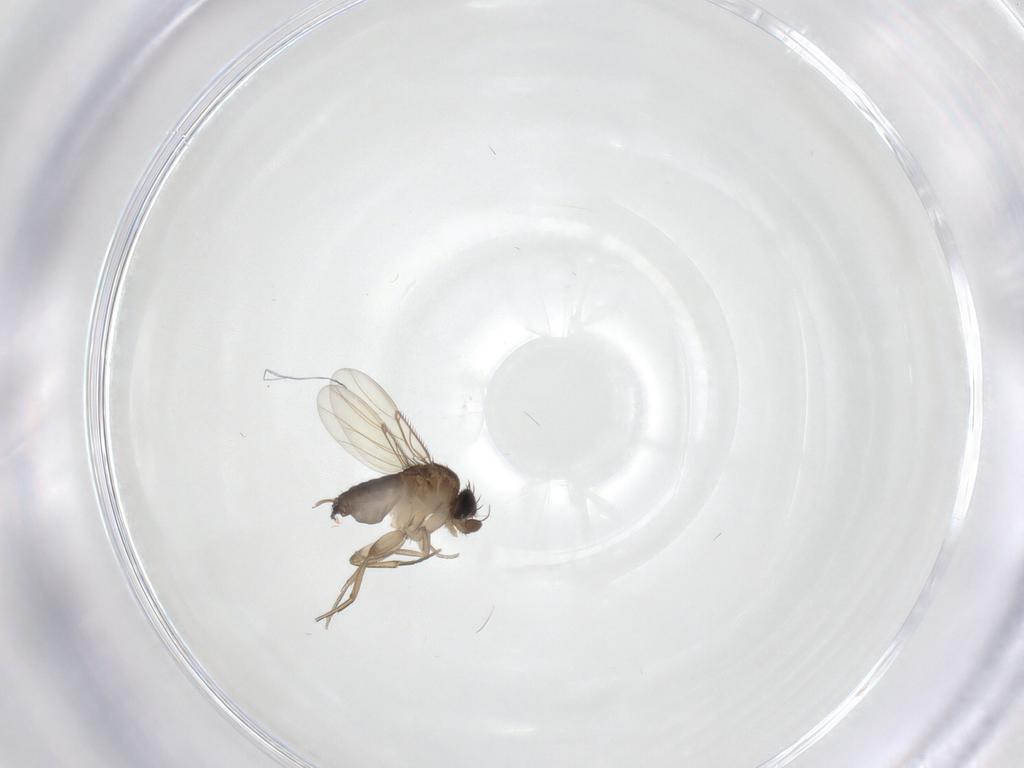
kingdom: Animalia
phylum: Arthropoda
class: Insecta
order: Diptera
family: Phoridae
